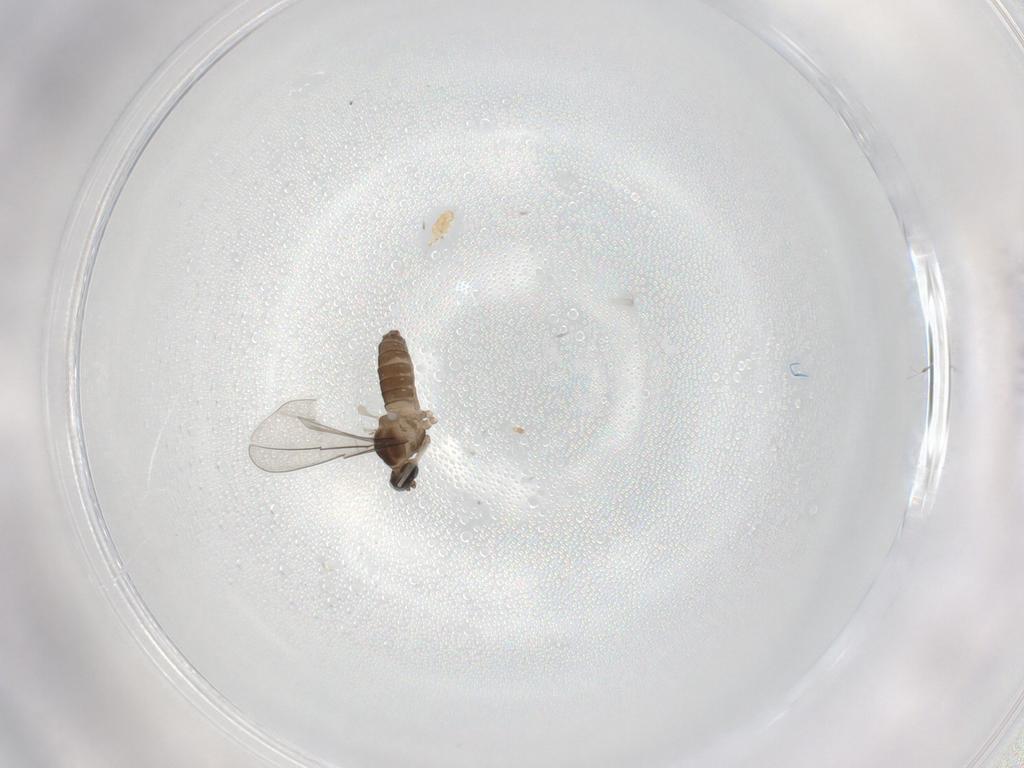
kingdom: Animalia
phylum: Arthropoda
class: Insecta
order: Diptera
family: Cecidomyiidae
